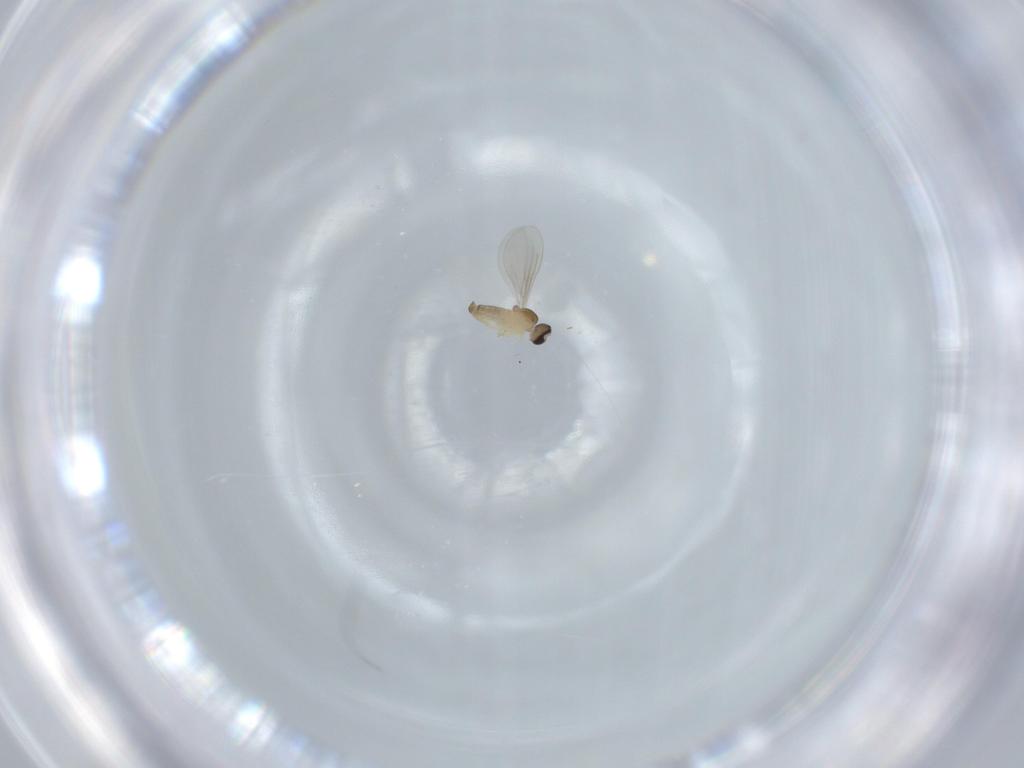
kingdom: Animalia
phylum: Arthropoda
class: Insecta
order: Diptera
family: Cecidomyiidae
